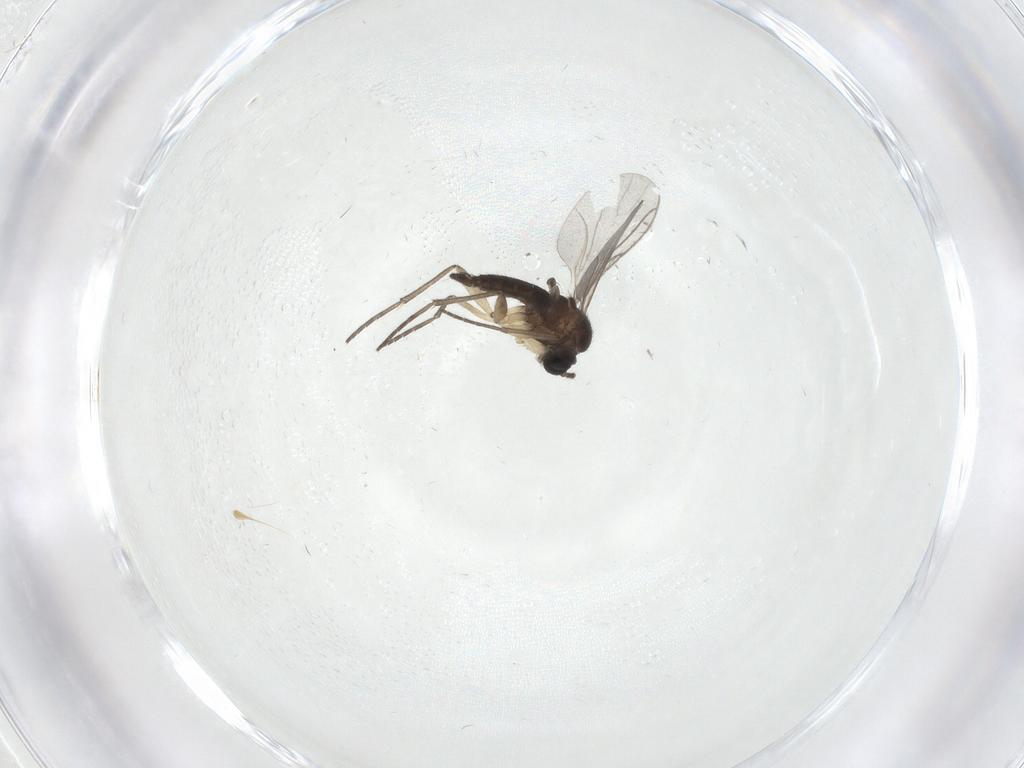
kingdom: Animalia
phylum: Arthropoda
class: Insecta
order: Diptera
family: Sciaridae
